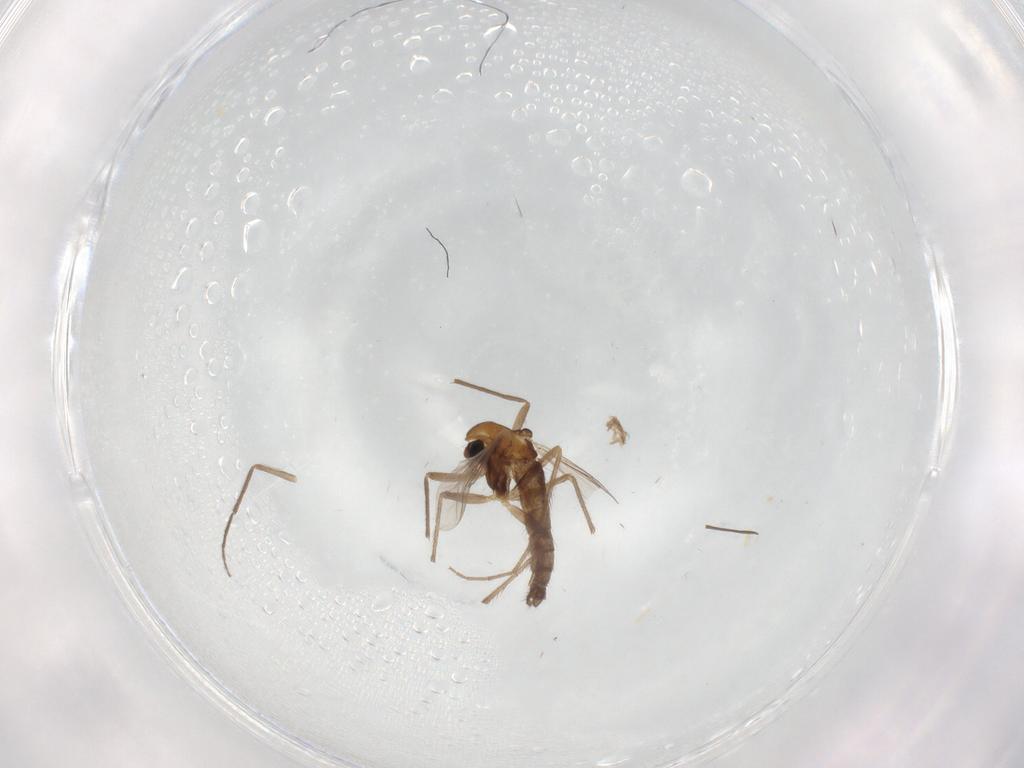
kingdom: Animalia
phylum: Arthropoda
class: Insecta
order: Diptera
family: Chironomidae
